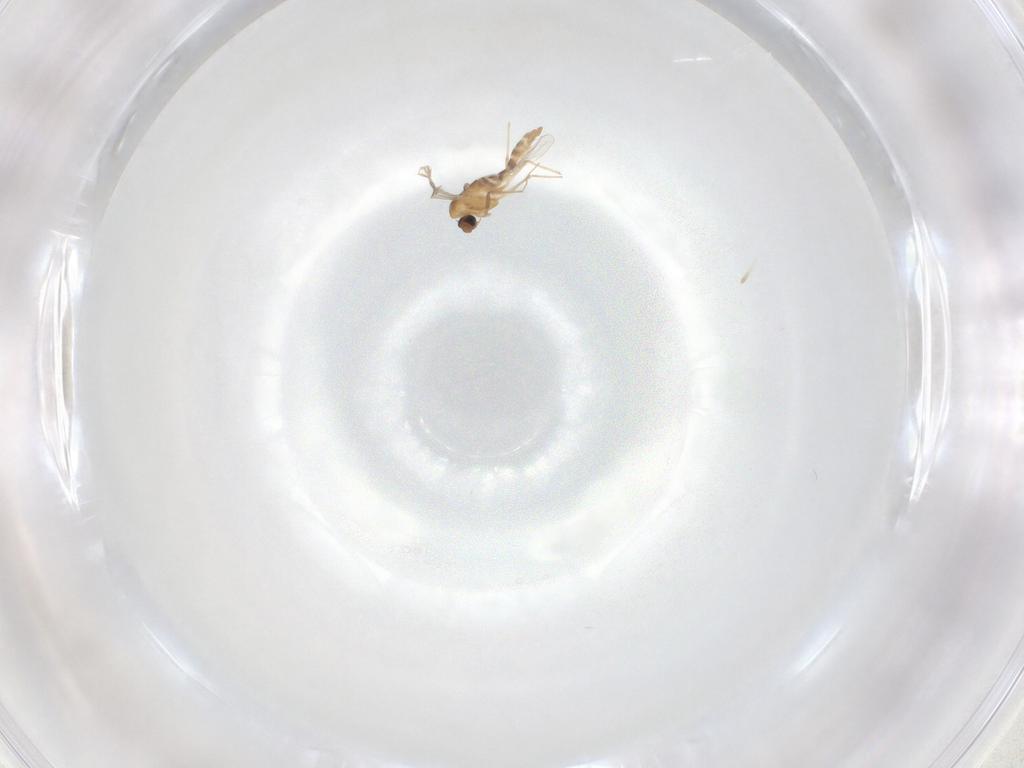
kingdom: Animalia
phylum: Arthropoda
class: Insecta
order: Diptera
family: Chironomidae
